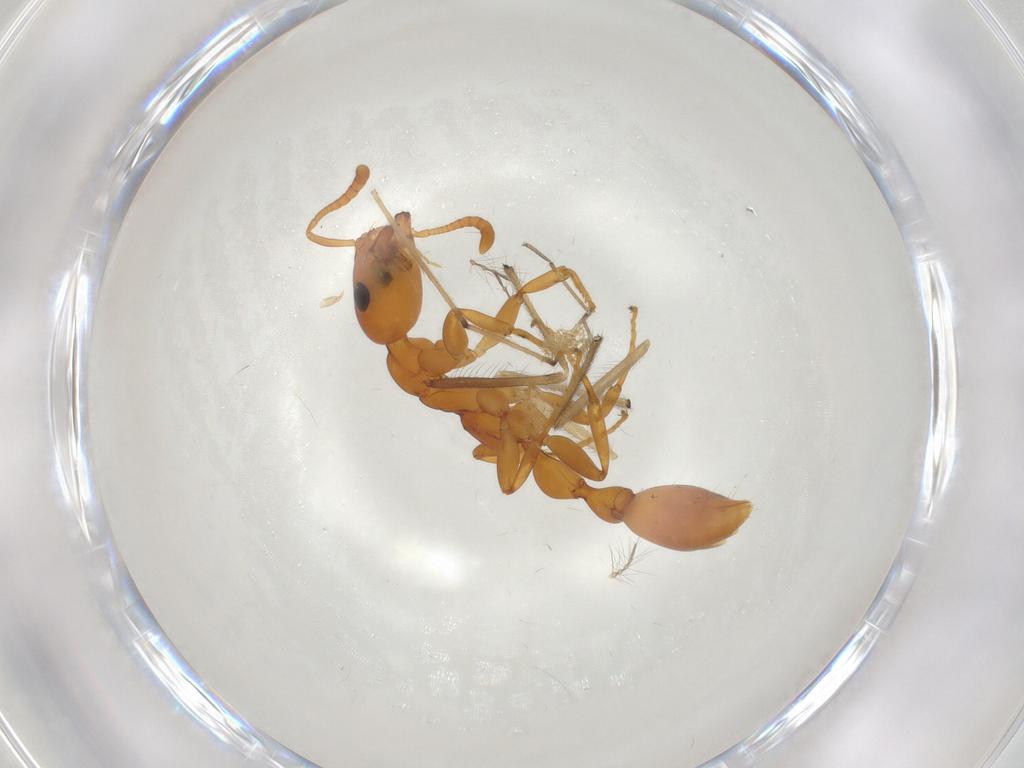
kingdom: Animalia
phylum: Arthropoda
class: Insecta
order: Hymenoptera
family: Formicidae
